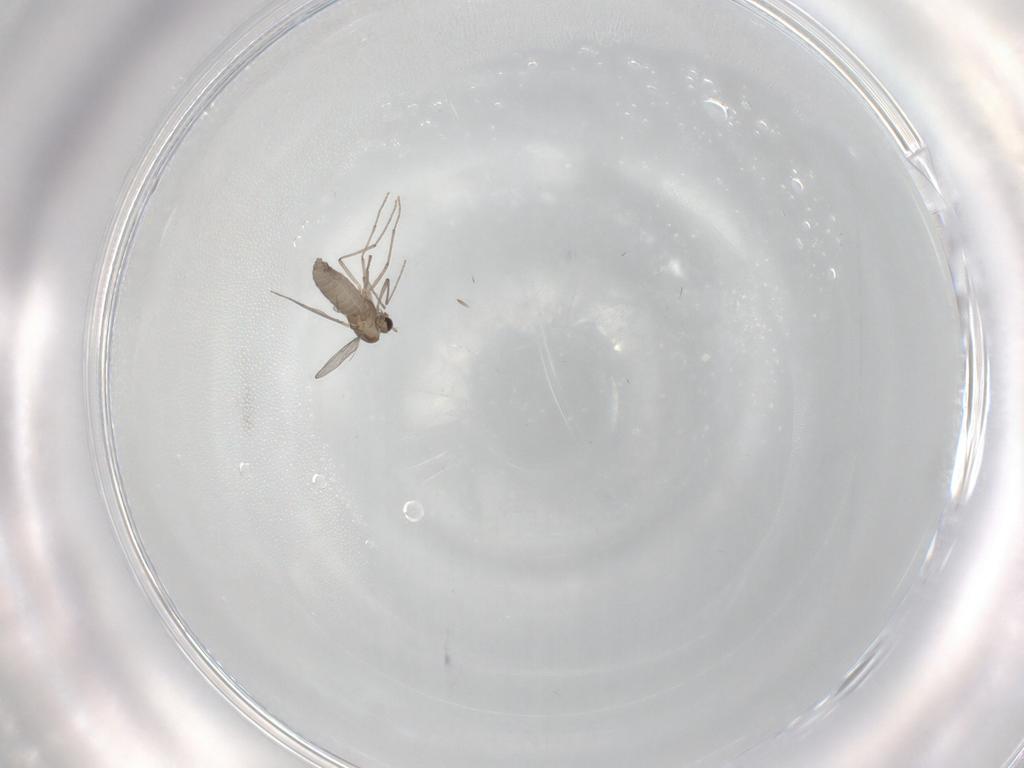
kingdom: Animalia
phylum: Arthropoda
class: Insecta
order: Diptera
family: Chironomidae
